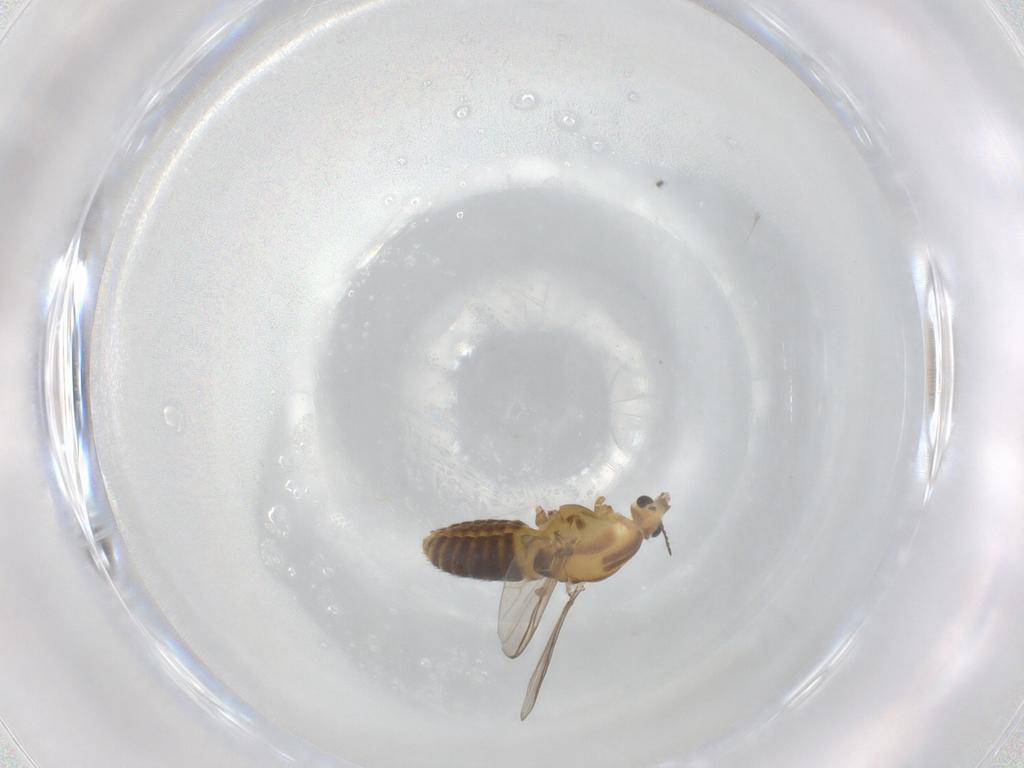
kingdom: Animalia
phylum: Arthropoda
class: Insecta
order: Diptera
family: Chironomidae
